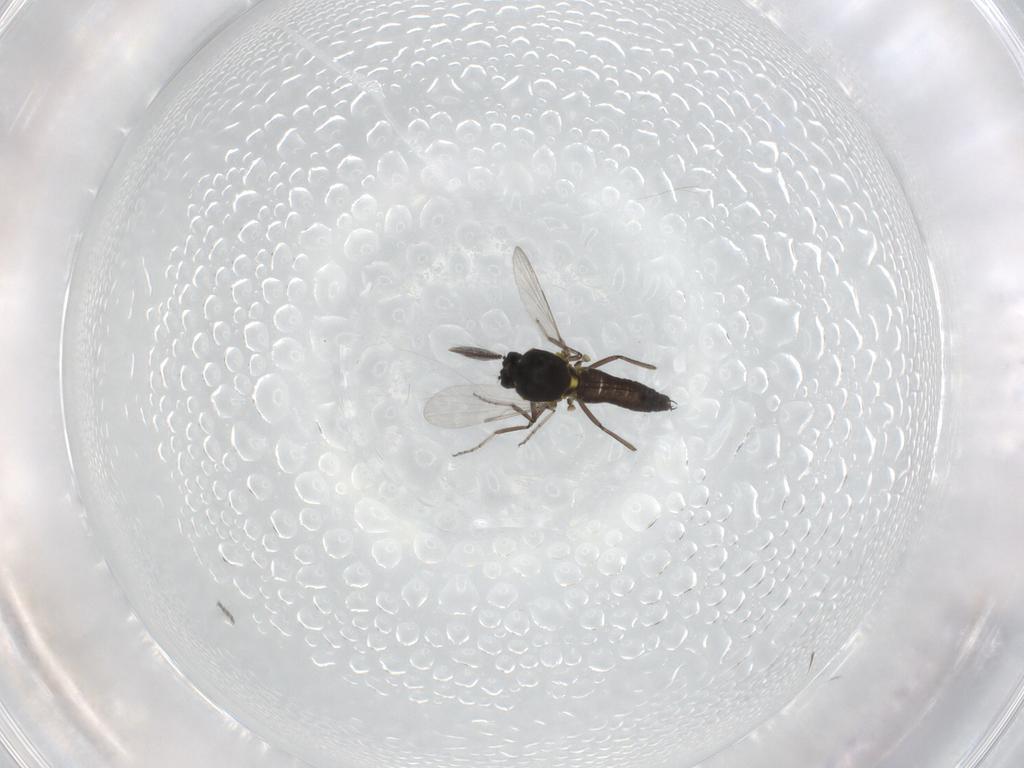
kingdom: Animalia
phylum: Arthropoda
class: Insecta
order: Diptera
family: Ceratopogonidae
